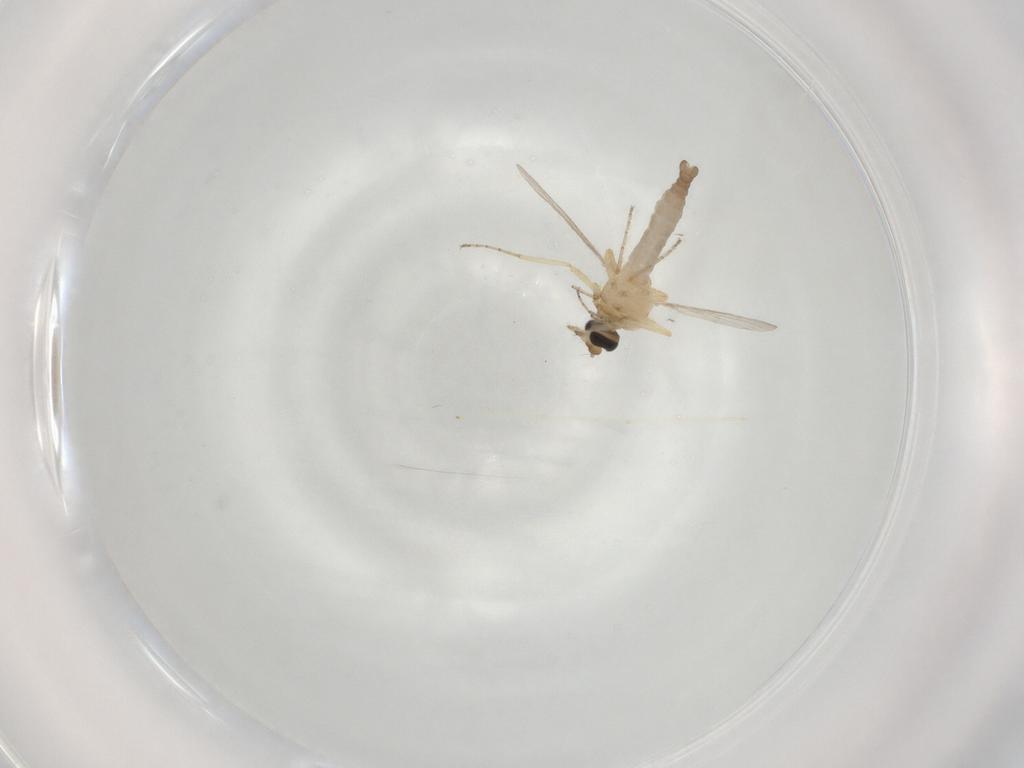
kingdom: Animalia
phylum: Arthropoda
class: Insecta
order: Diptera
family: Ceratopogonidae
